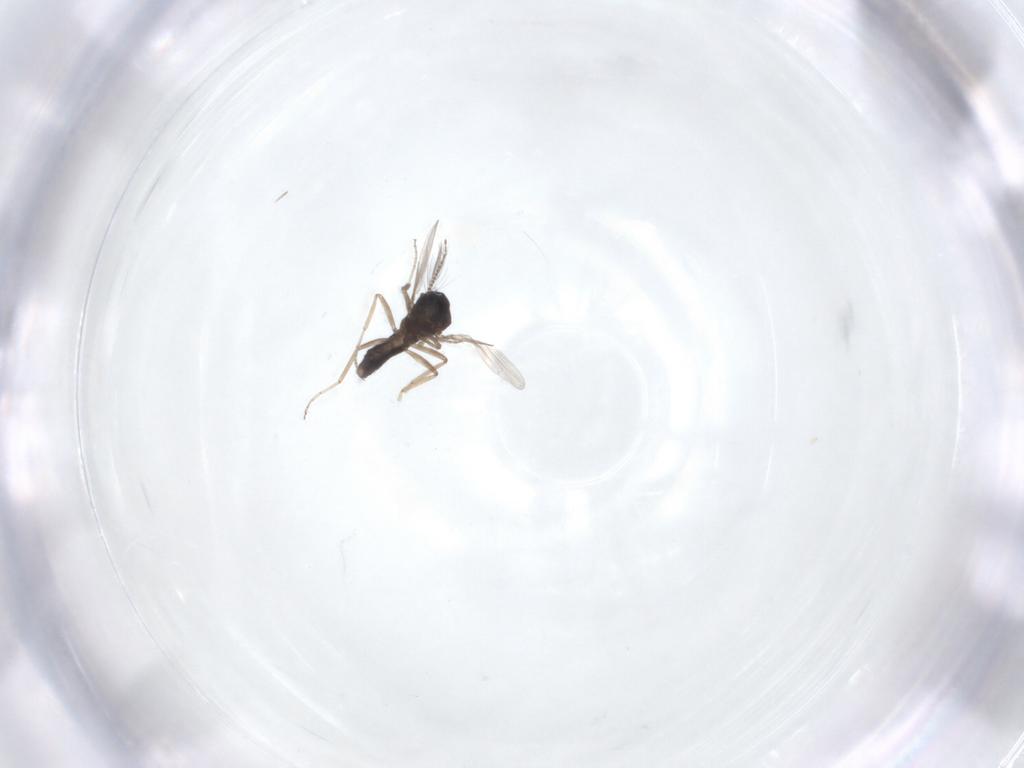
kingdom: Animalia
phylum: Arthropoda
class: Insecta
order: Diptera
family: Ceratopogonidae
